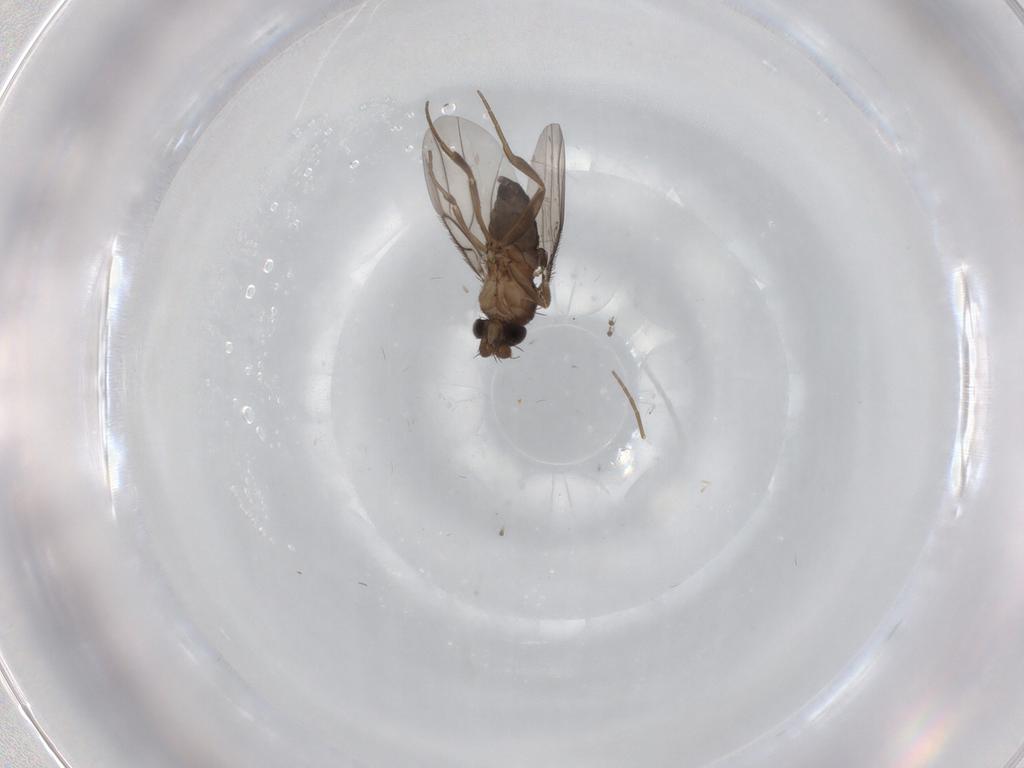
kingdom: Animalia
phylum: Arthropoda
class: Insecta
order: Diptera
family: Psychodidae
